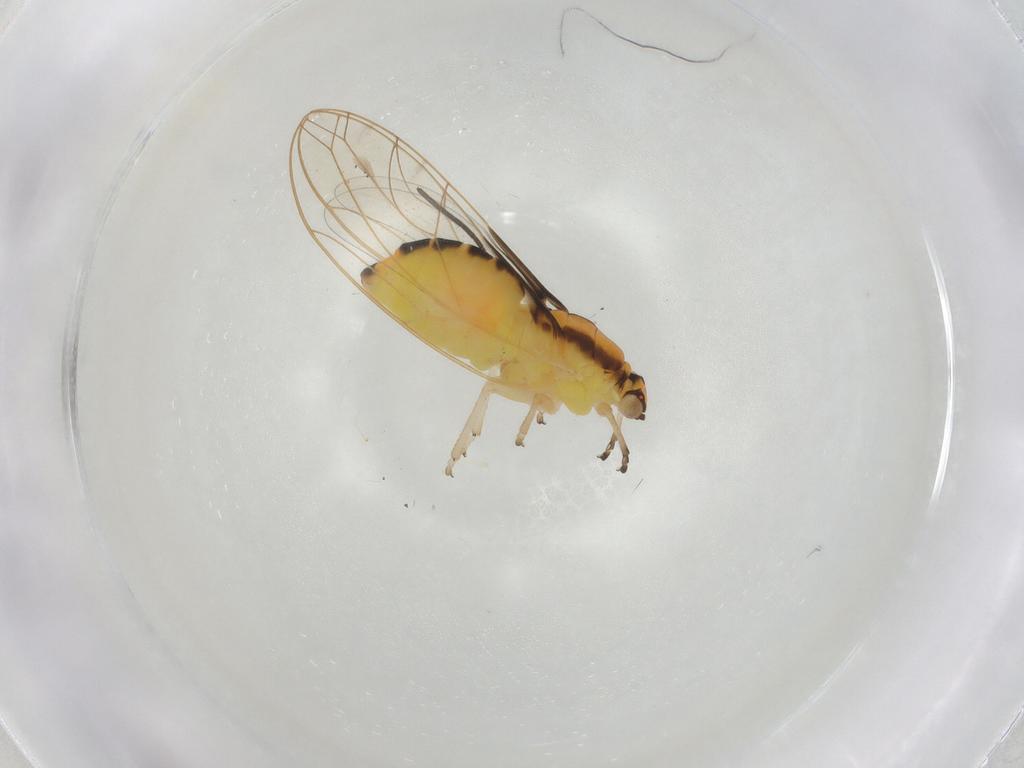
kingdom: Animalia
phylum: Arthropoda
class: Insecta
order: Hemiptera
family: Psylloidea_incertae_sedis
